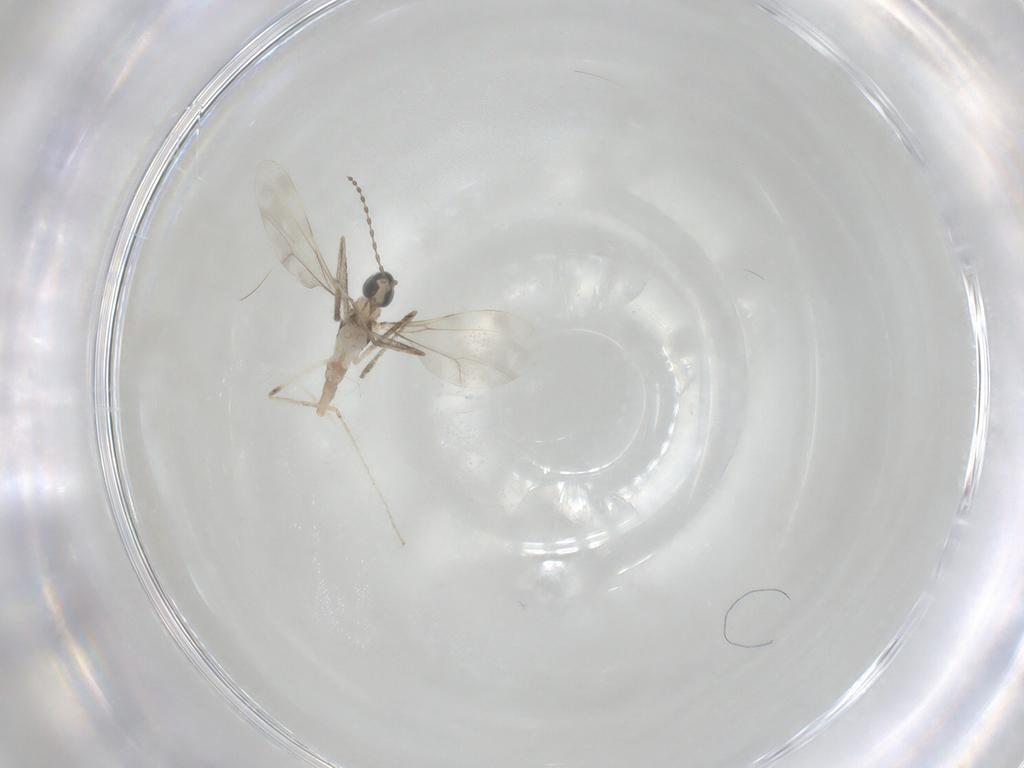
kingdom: Animalia
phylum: Arthropoda
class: Insecta
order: Diptera
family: Cecidomyiidae
